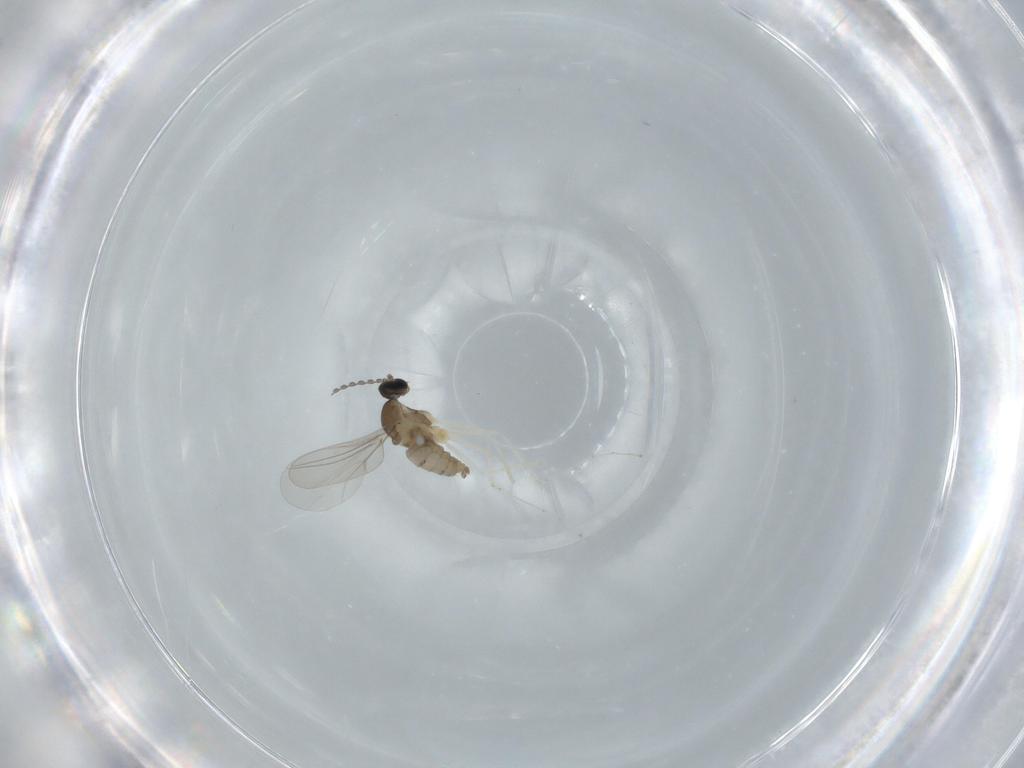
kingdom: Animalia
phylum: Arthropoda
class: Insecta
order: Diptera
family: Cecidomyiidae
